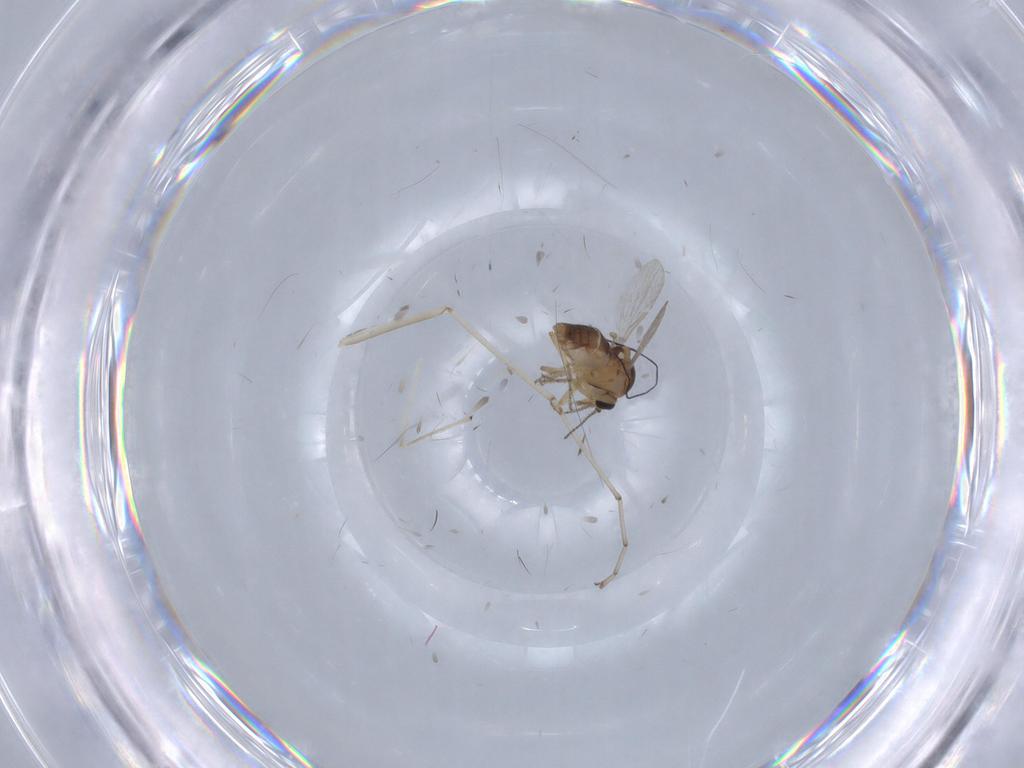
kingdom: Animalia
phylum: Arthropoda
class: Insecta
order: Diptera
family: Ceratopogonidae
